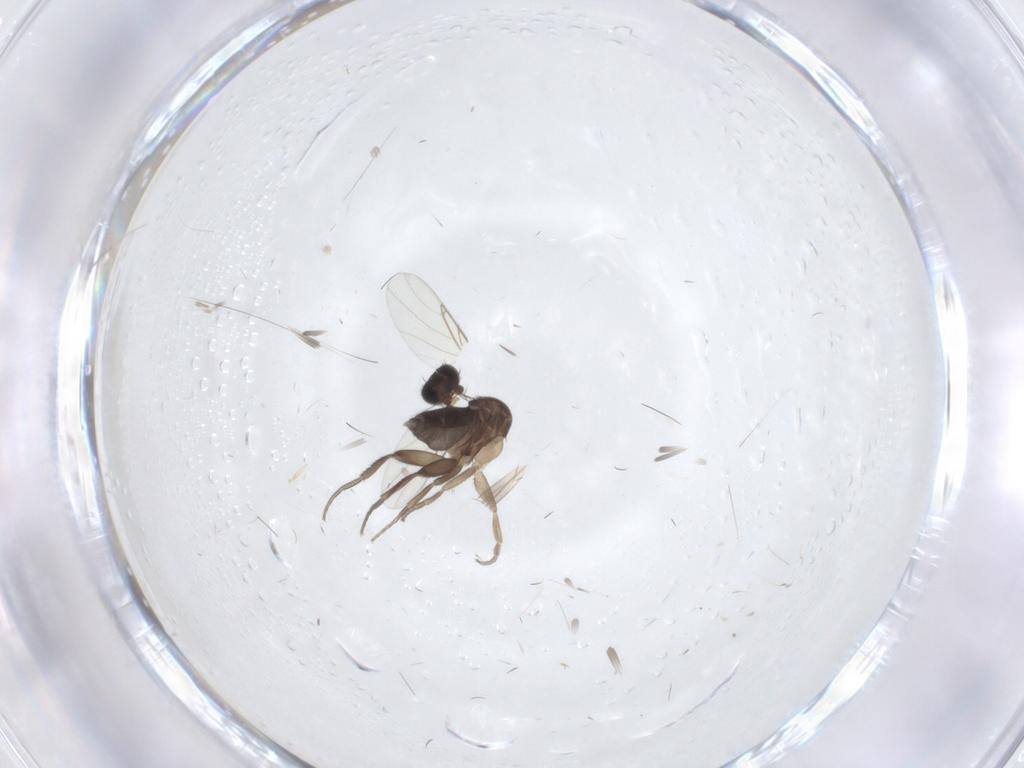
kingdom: Animalia
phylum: Arthropoda
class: Insecta
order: Diptera
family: Phoridae
